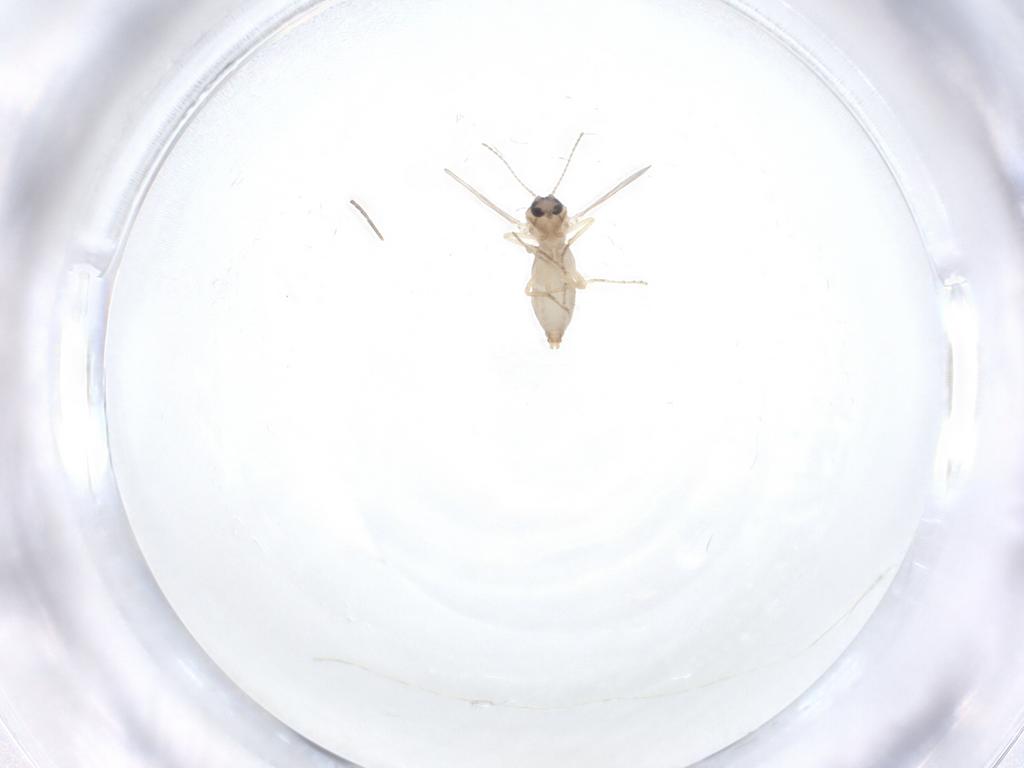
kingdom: Animalia
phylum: Arthropoda
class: Insecta
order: Diptera
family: Ceratopogonidae
